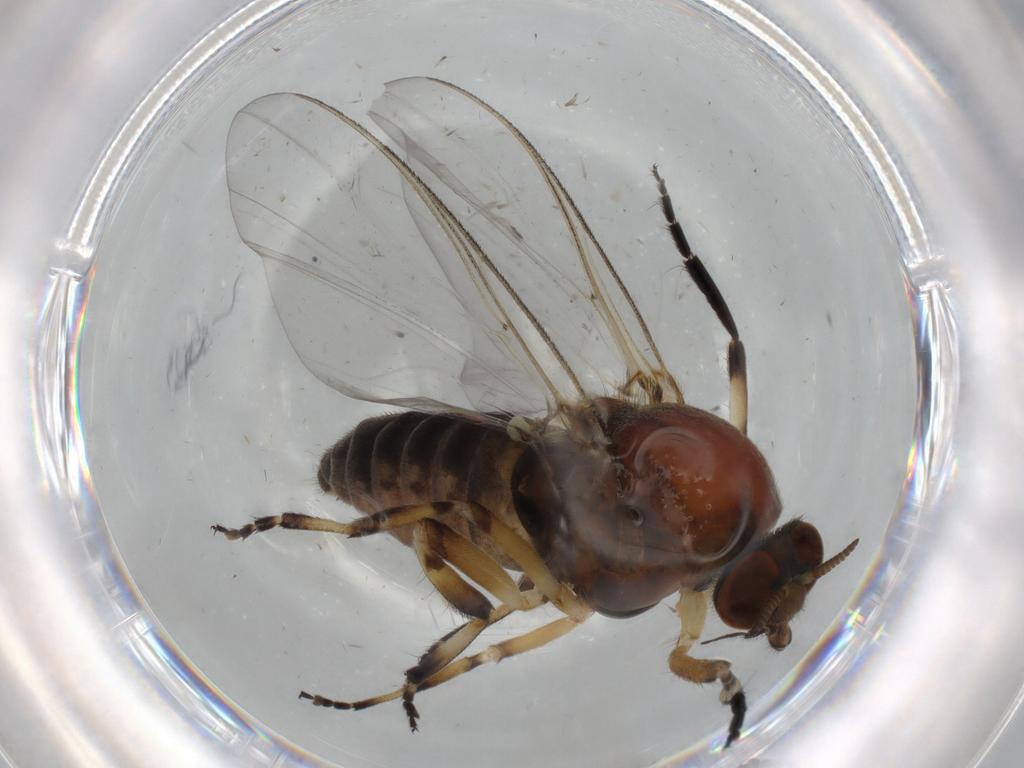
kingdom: Animalia
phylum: Arthropoda
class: Insecta
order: Diptera
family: Phoridae
